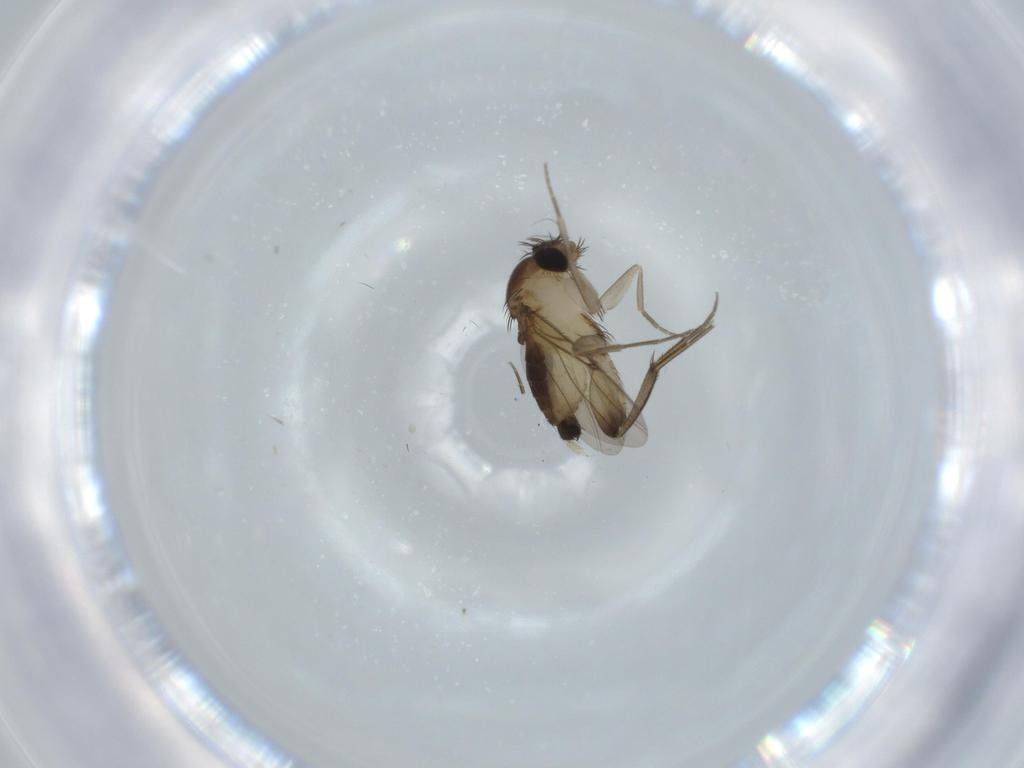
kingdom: Animalia
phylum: Arthropoda
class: Insecta
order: Diptera
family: Phoridae
